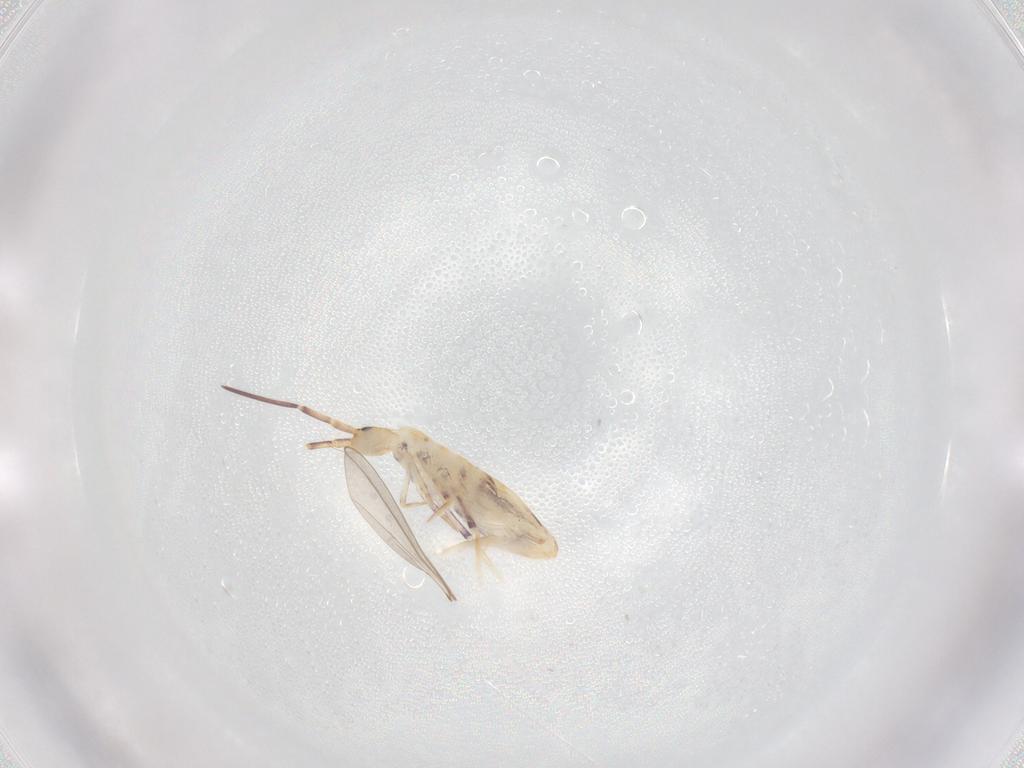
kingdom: Animalia
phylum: Arthropoda
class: Collembola
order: Poduromorpha
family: Hypogastruridae
